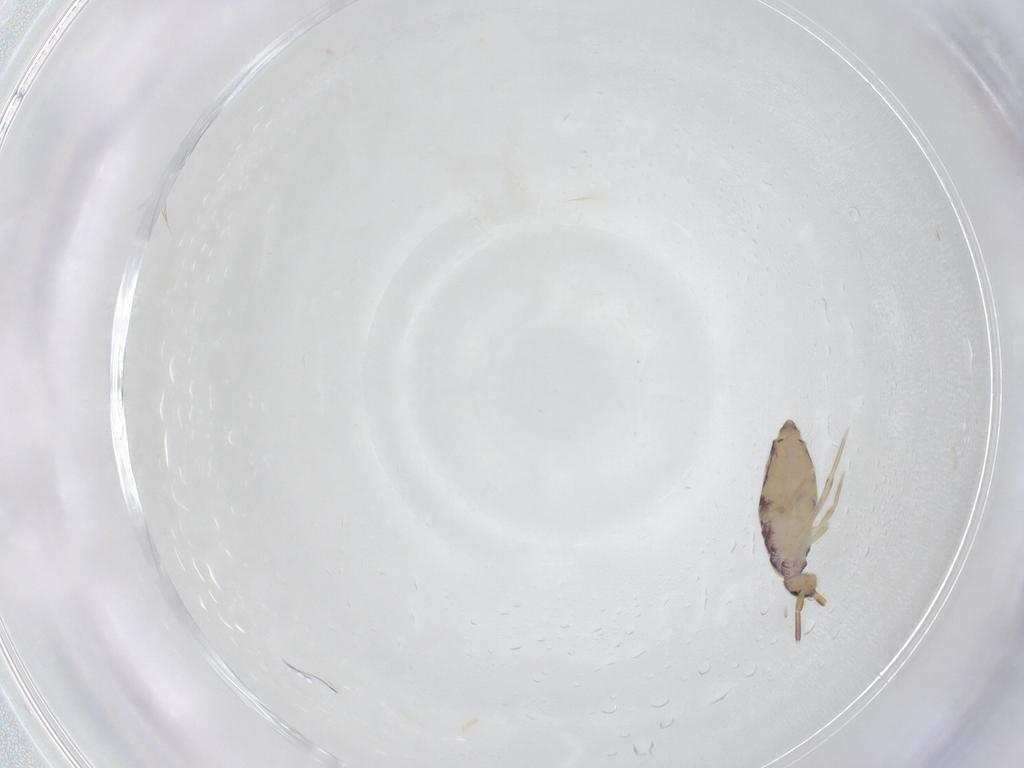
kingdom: Animalia
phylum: Arthropoda
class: Collembola
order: Entomobryomorpha
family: Entomobryidae
